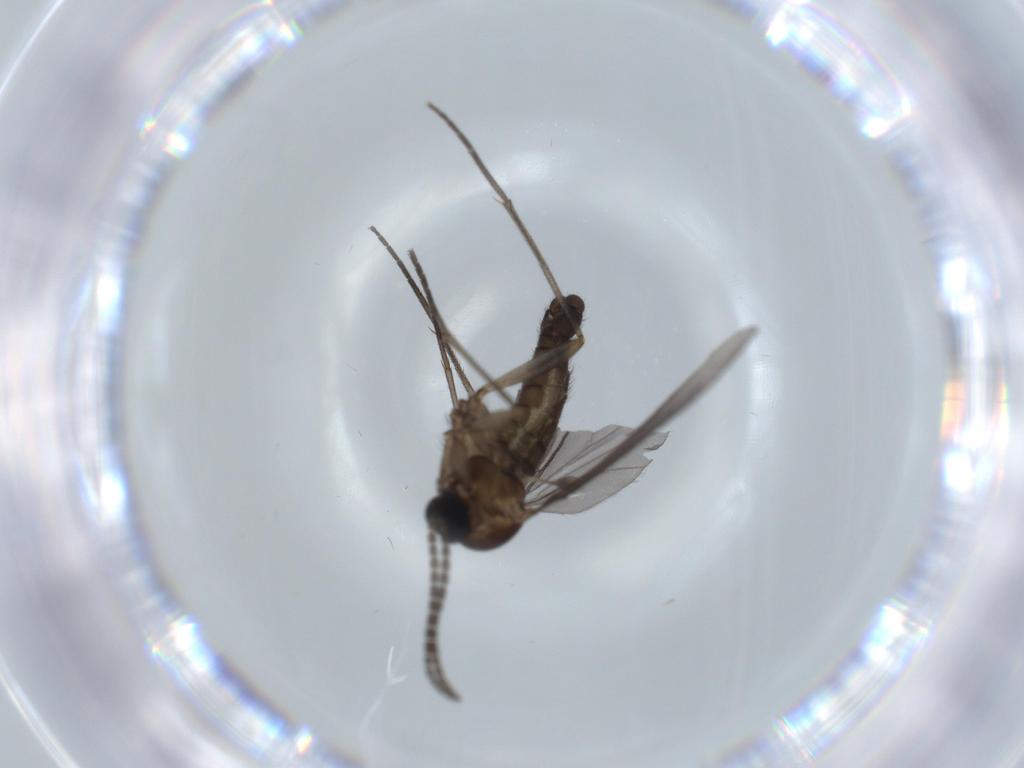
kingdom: Animalia
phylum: Arthropoda
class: Insecta
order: Diptera
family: Sciaridae
